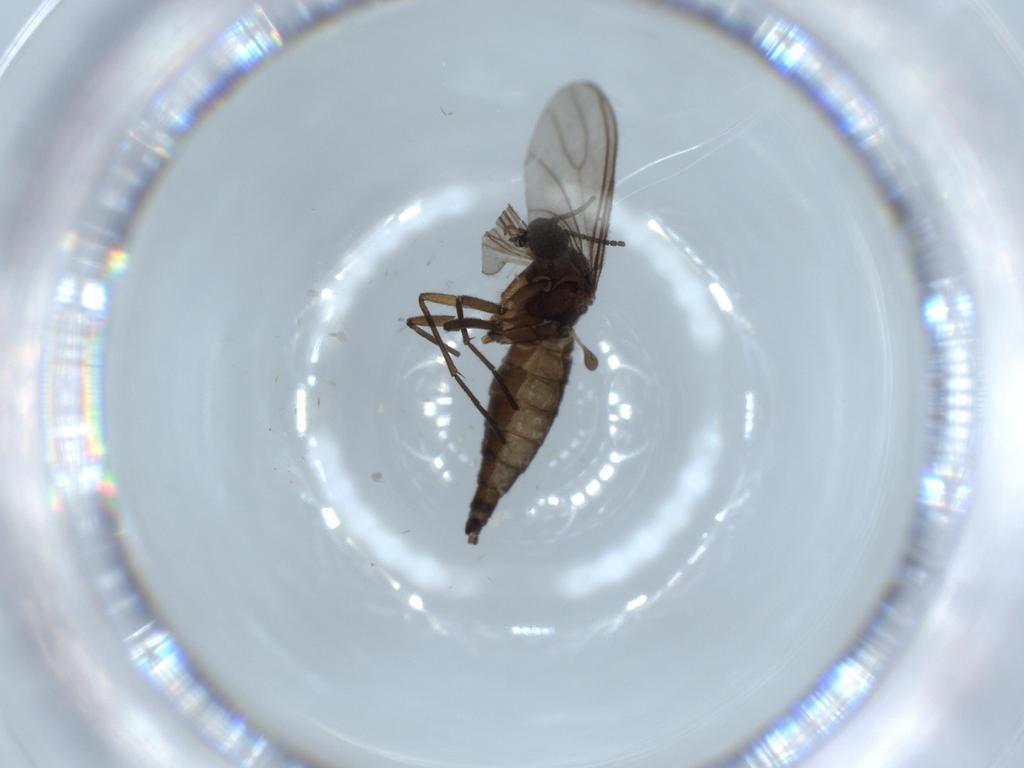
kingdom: Animalia
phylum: Arthropoda
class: Insecta
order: Diptera
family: Sciaridae
